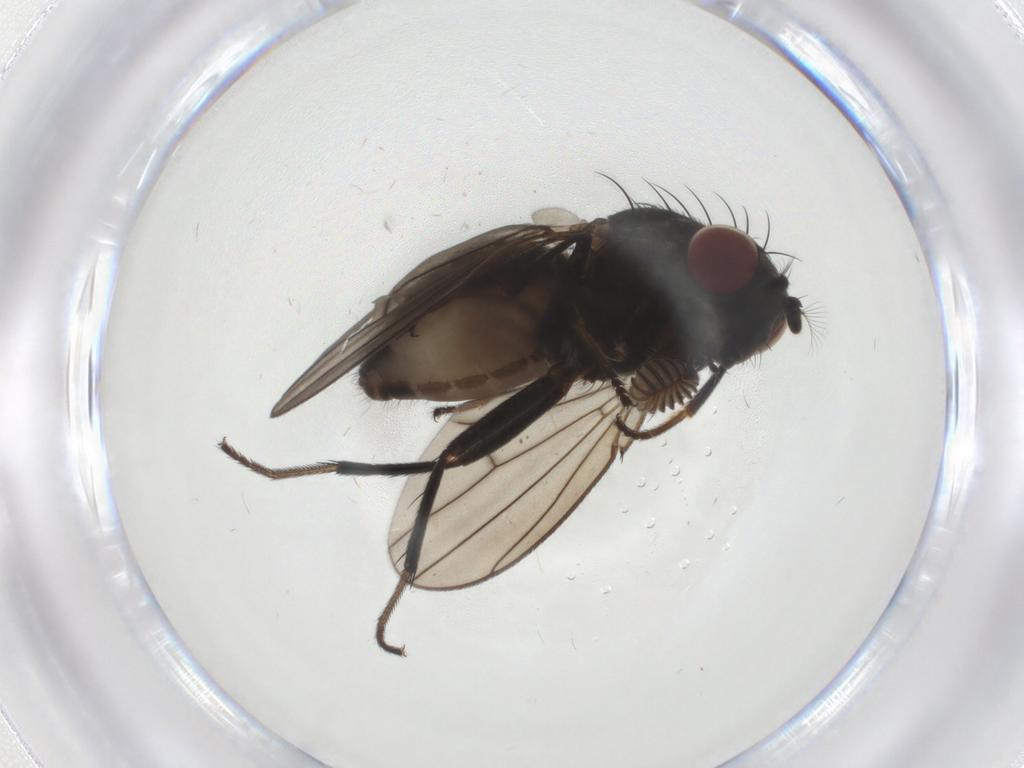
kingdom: Animalia
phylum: Arthropoda
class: Insecta
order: Diptera
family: Ephydridae
